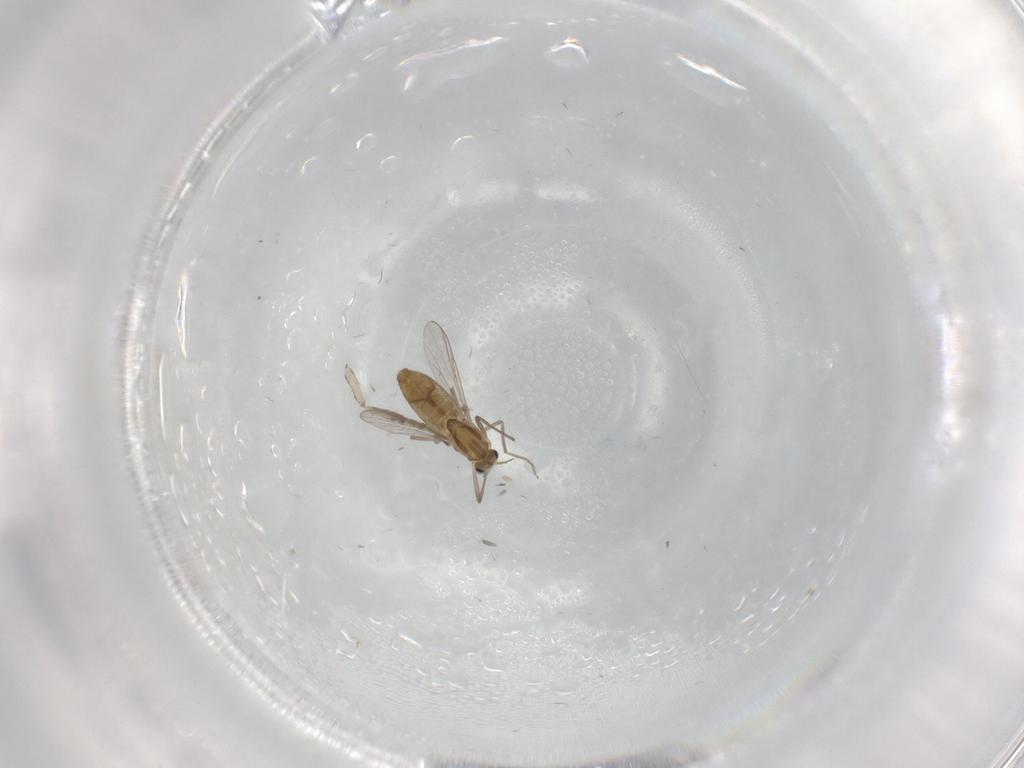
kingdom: Animalia
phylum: Arthropoda
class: Insecta
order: Diptera
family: Chironomidae
